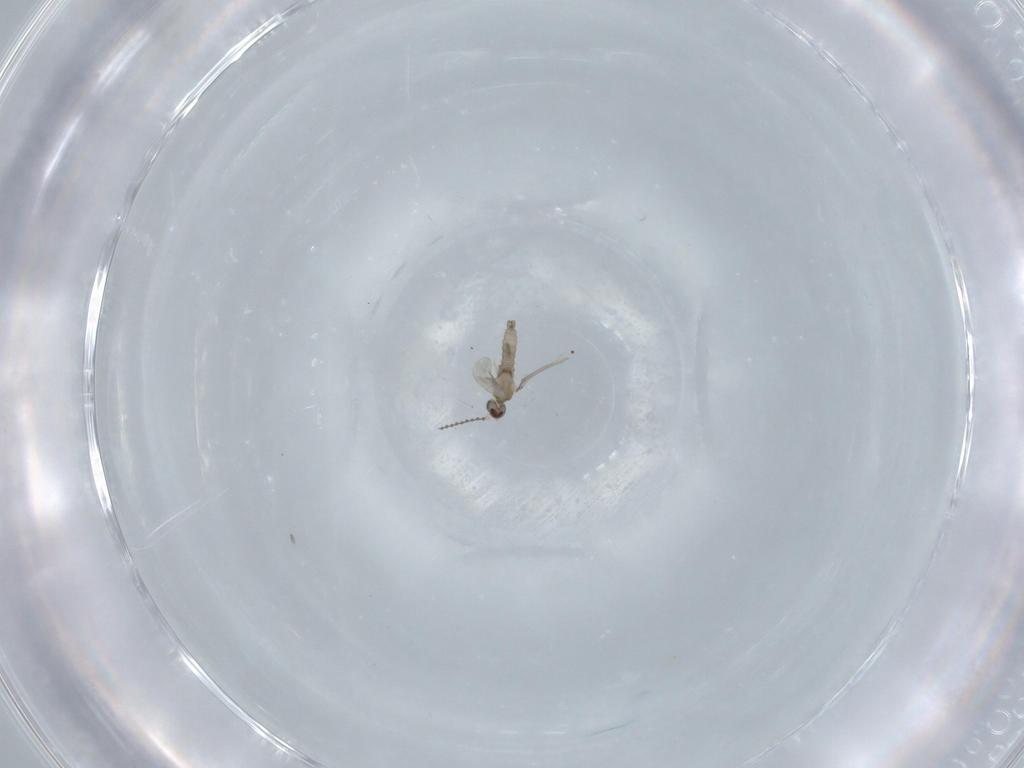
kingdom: Animalia
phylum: Arthropoda
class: Insecta
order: Diptera
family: Cecidomyiidae
